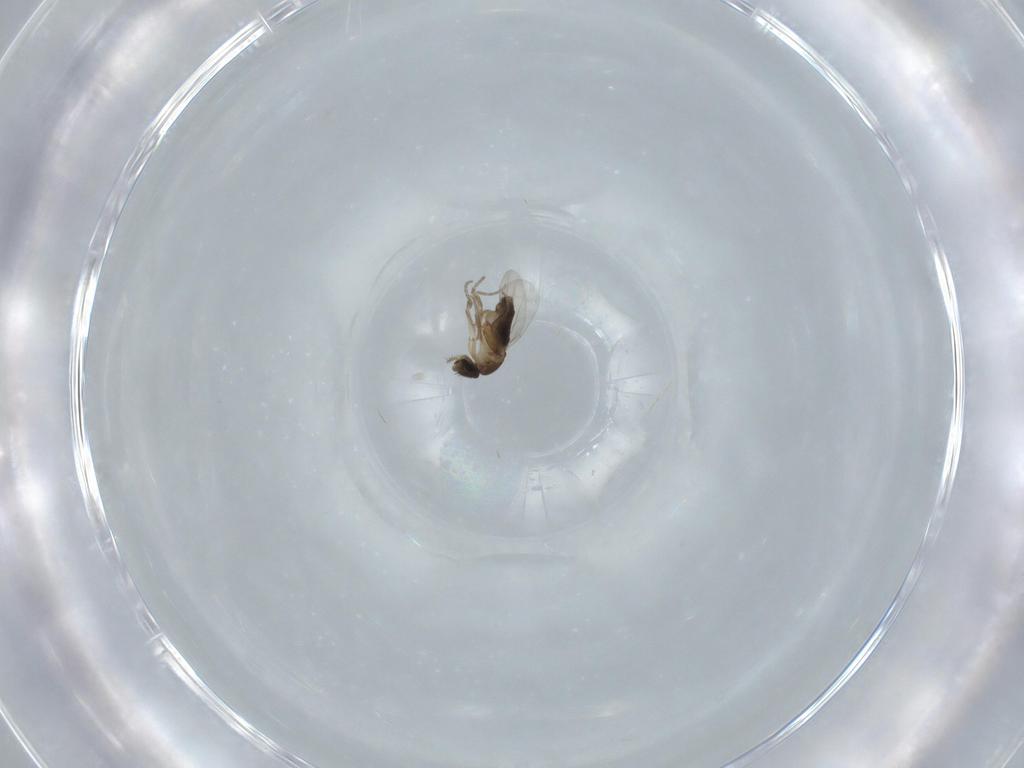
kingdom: Animalia
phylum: Arthropoda
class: Insecta
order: Diptera
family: Phoridae
